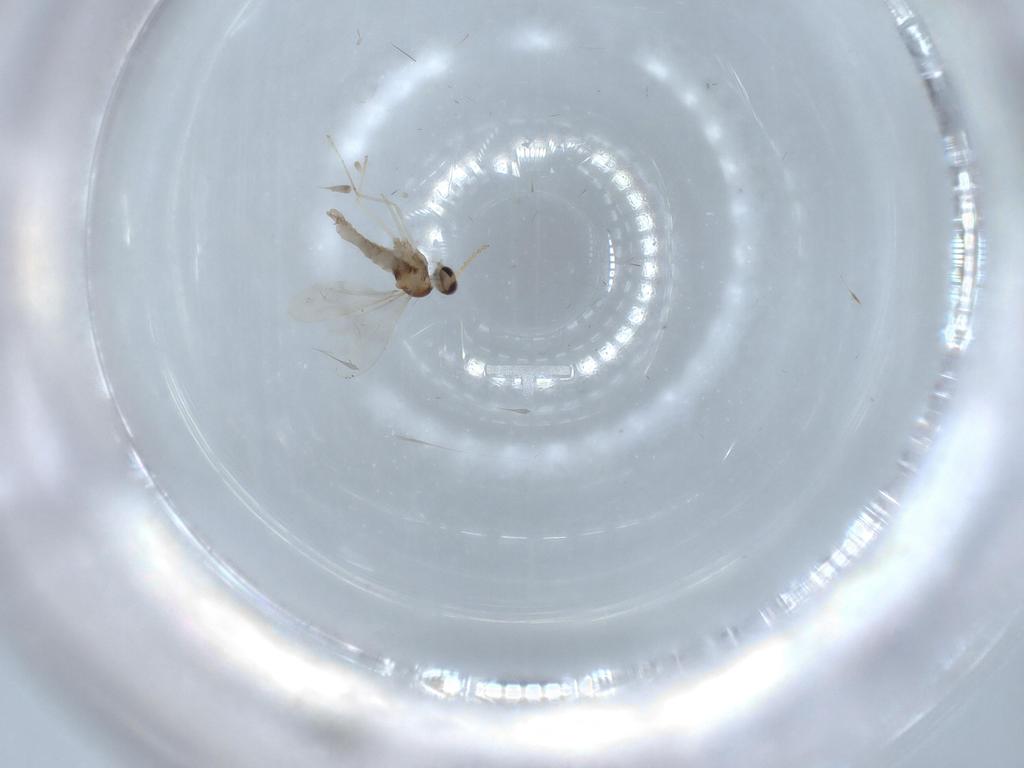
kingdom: Animalia
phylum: Arthropoda
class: Insecta
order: Diptera
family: Cecidomyiidae
